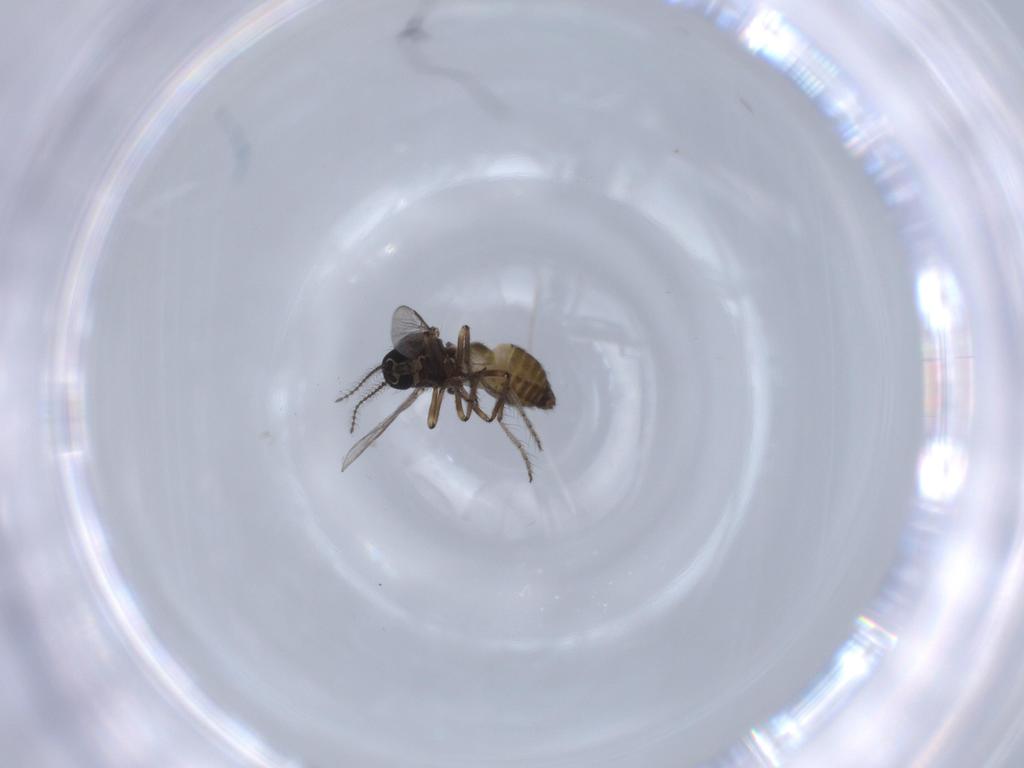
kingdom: Animalia
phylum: Arthropoda
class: Insecta
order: Diptera
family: Ceratopogonidae
